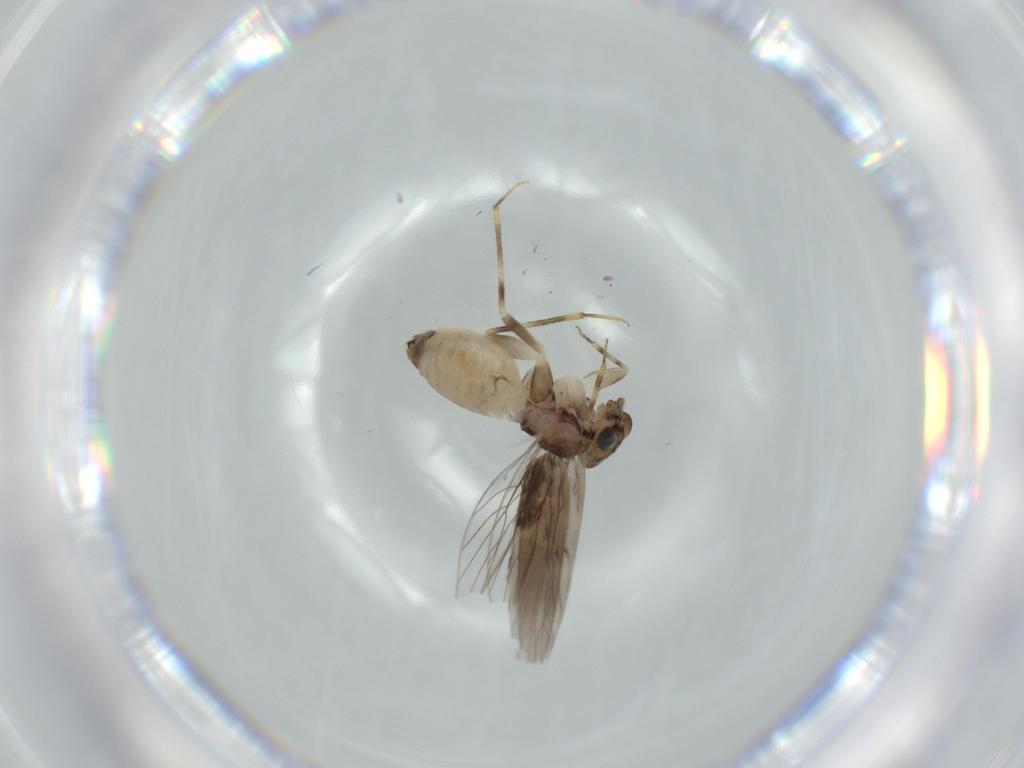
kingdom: Animalia
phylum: Arthropoda
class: Insecta
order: Psocodea
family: Lepidopsocidae
